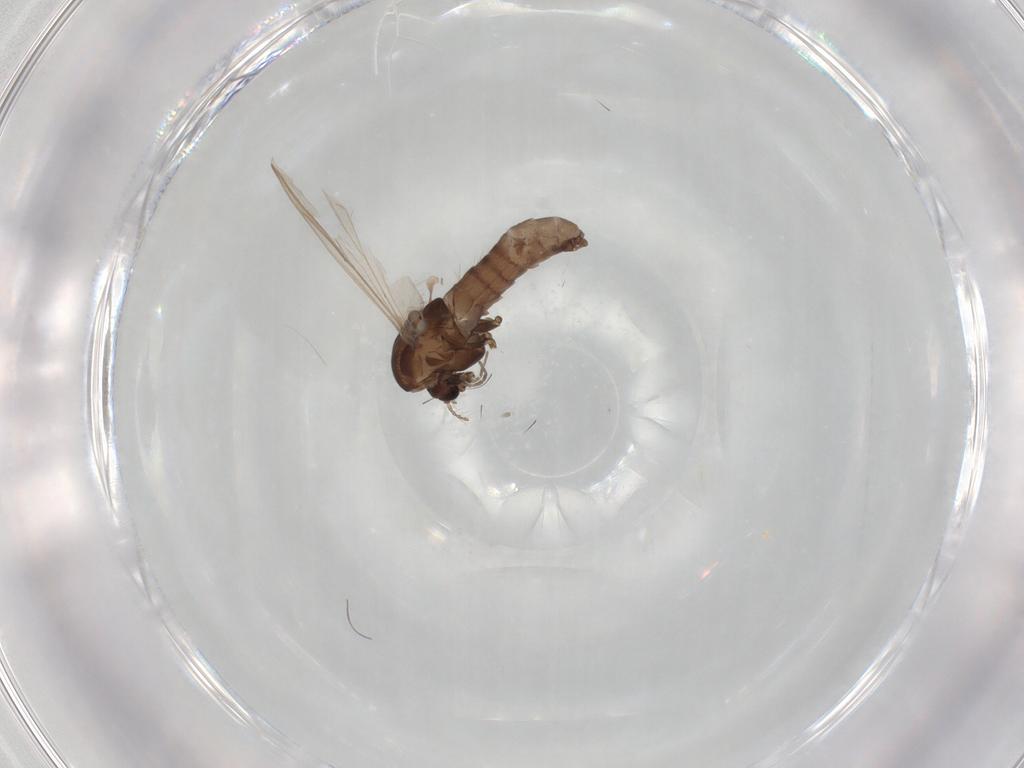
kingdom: Animalia
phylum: Arthropoda
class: Insecta
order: Diptera
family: Chironomidae
